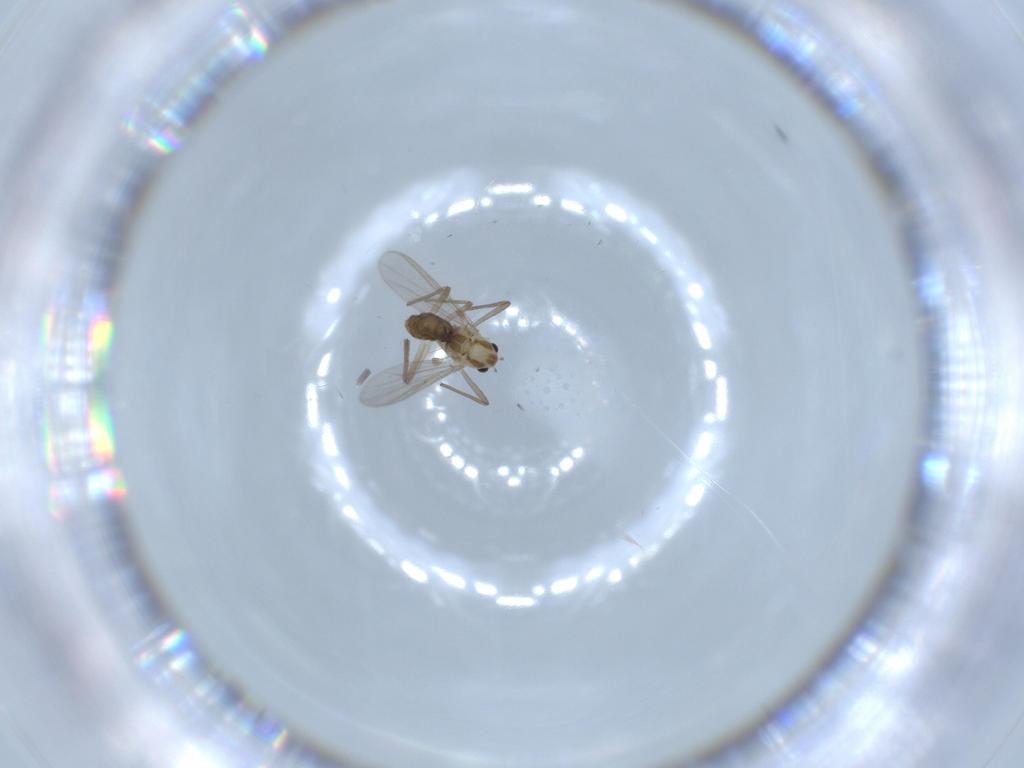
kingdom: Animalia
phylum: Arthropoda
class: Insecta
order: Diptera
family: Chironomidae
